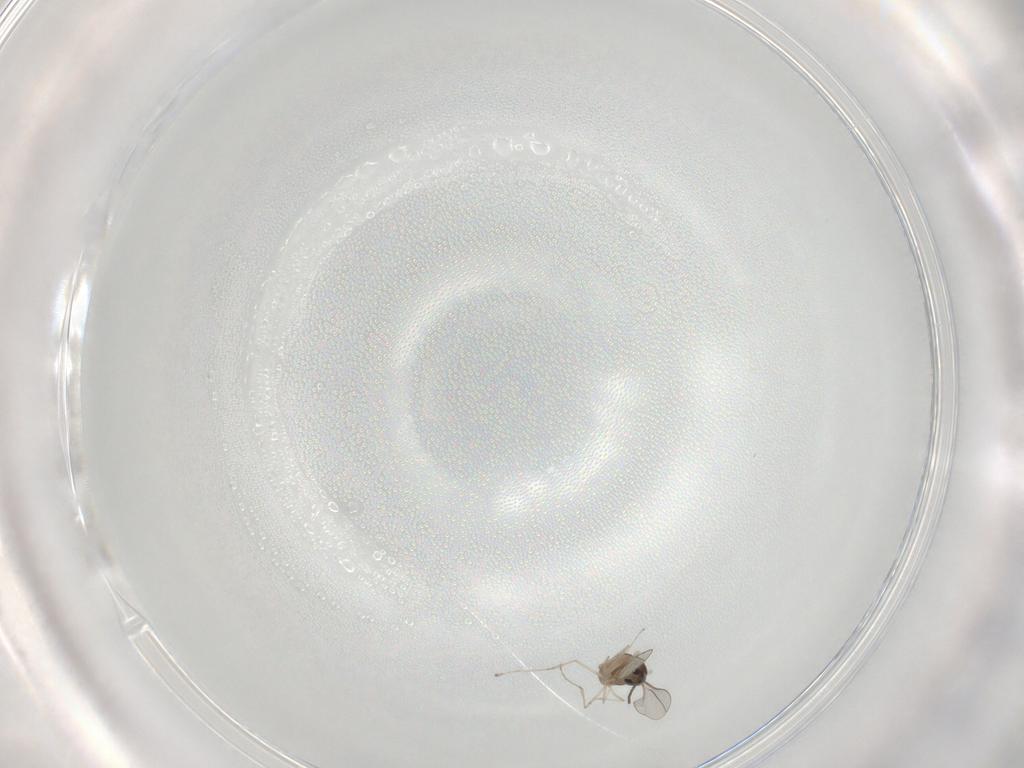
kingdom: Animalia
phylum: Arthropoda
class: Insecta
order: Diptera
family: Cecidomyiidae
